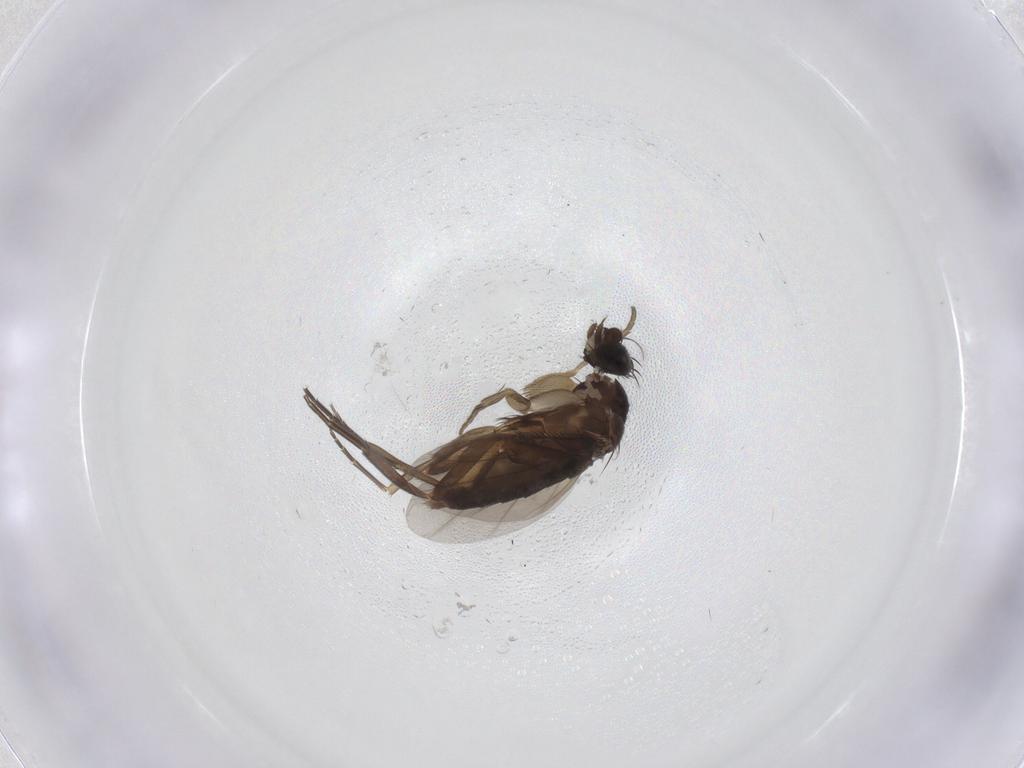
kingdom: Animalia
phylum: Arthropoda
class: Insecta
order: Diptera
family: Phoridae
